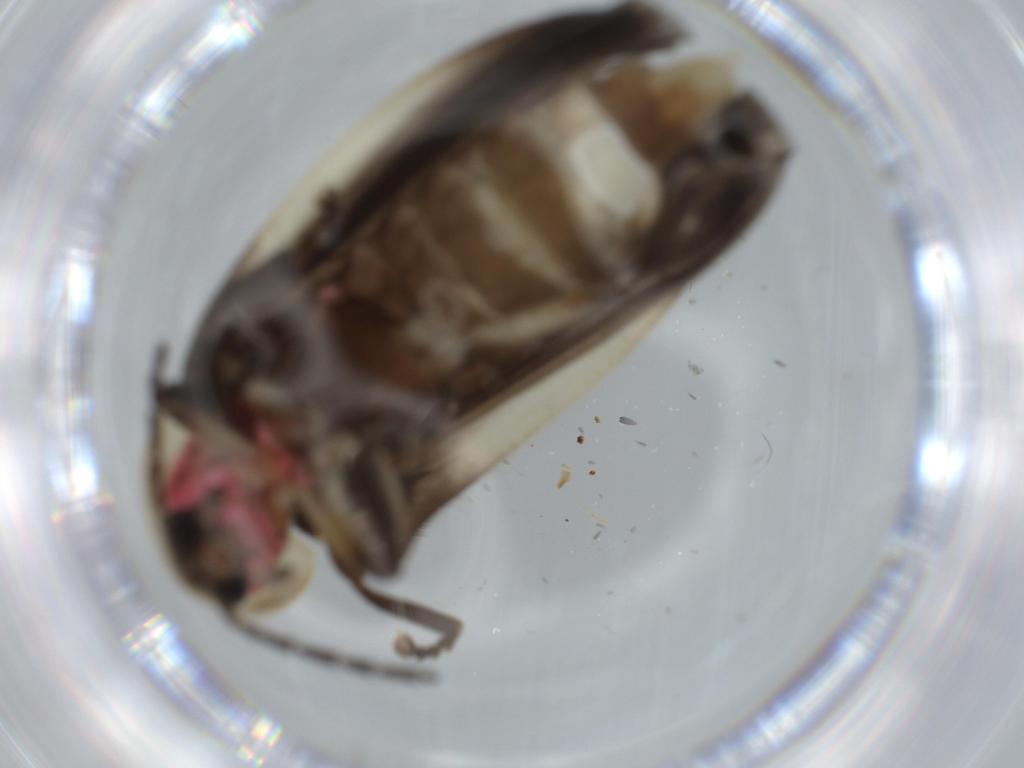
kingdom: Animalia
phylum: Arthropoda
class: Insecta
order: Coleoptera
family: Lampyridae
